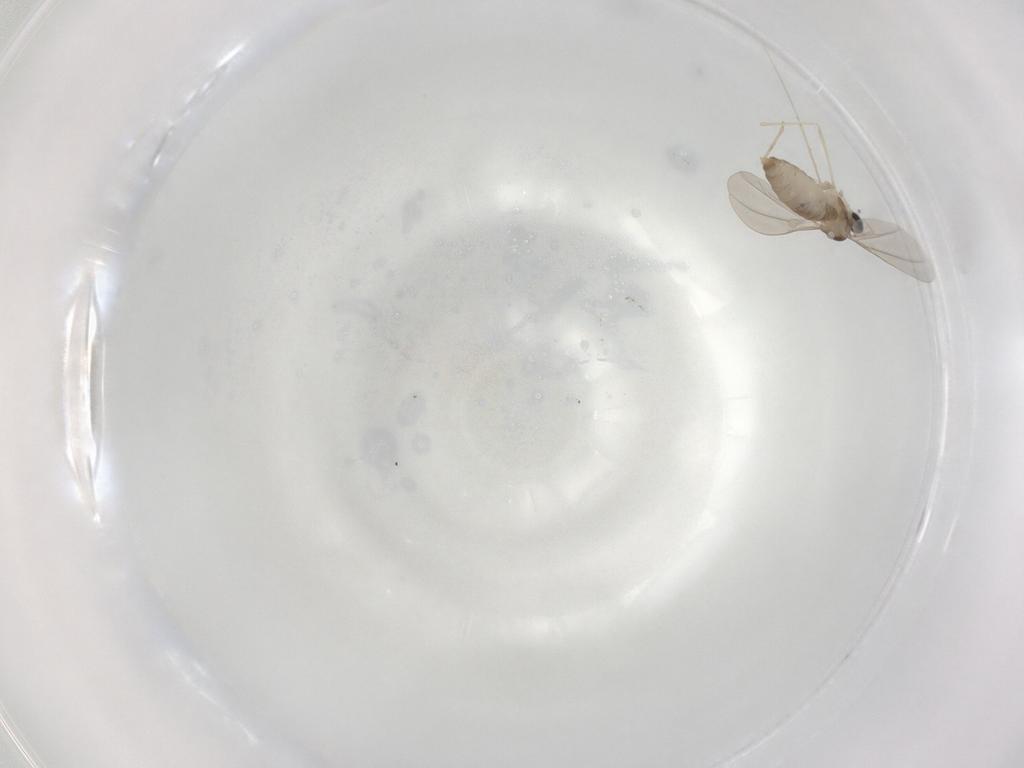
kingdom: Animalia
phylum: Arthropoda
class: Insecta
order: Diptera
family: Cecidomyiidae
